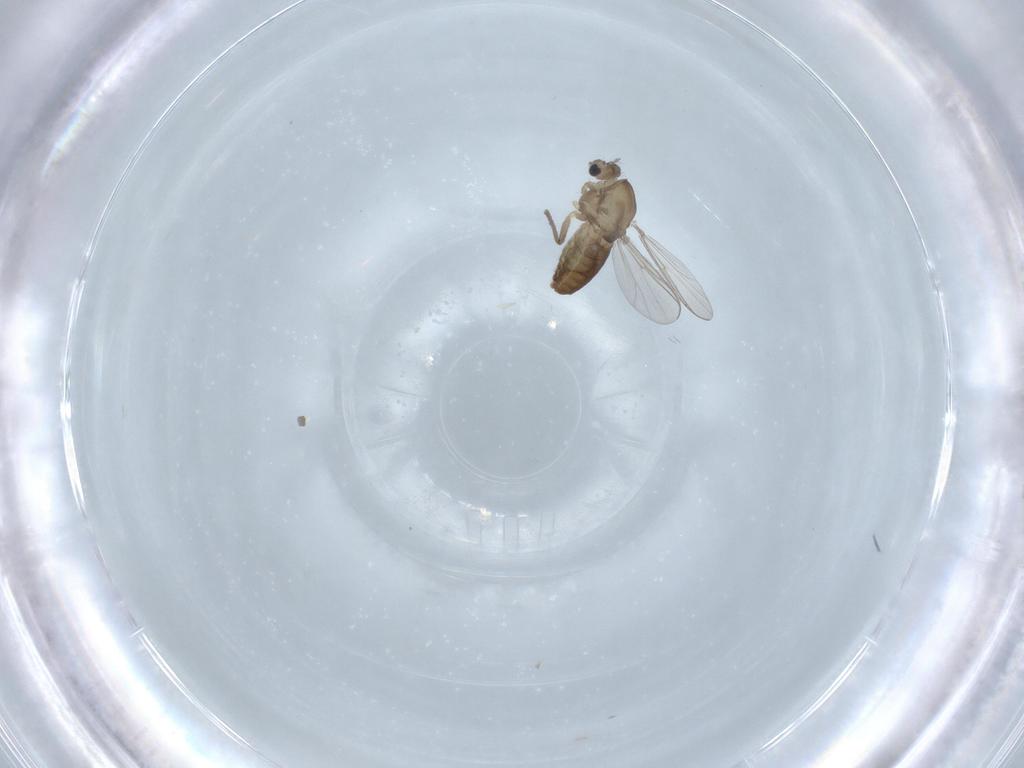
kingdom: Animalia
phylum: Arthropoda
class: Insecta
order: Diptera
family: Chironomidae
